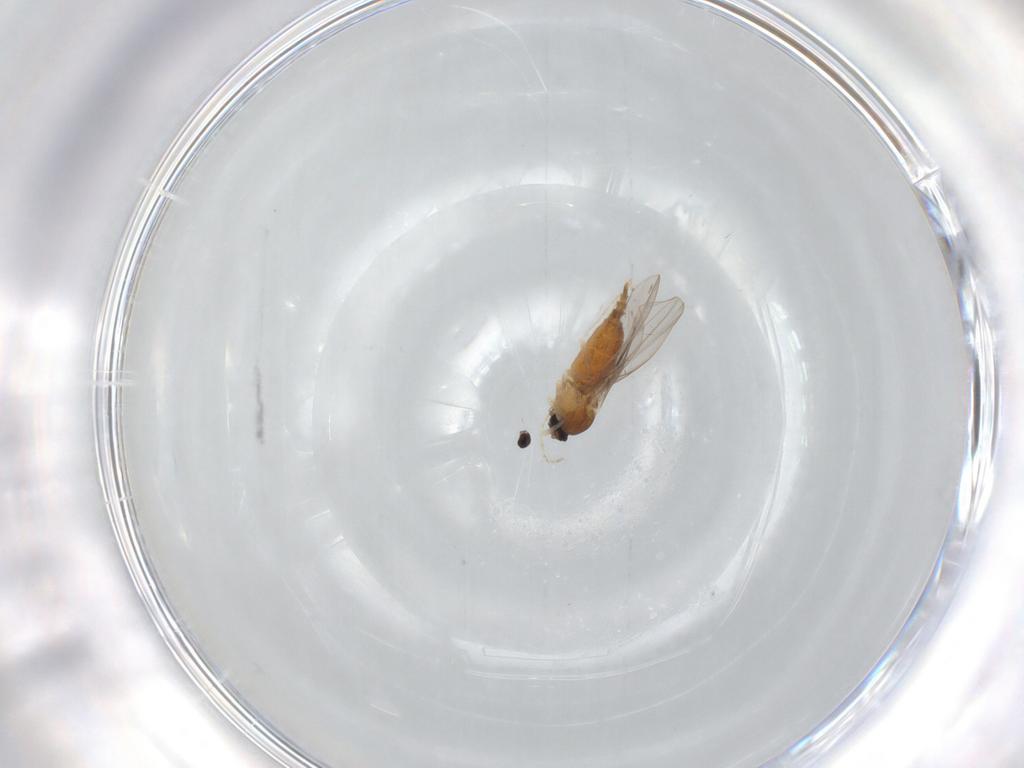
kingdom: Animalia
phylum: Arthropoda
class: Insecta
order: Diptera
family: Cecidomyiidae
